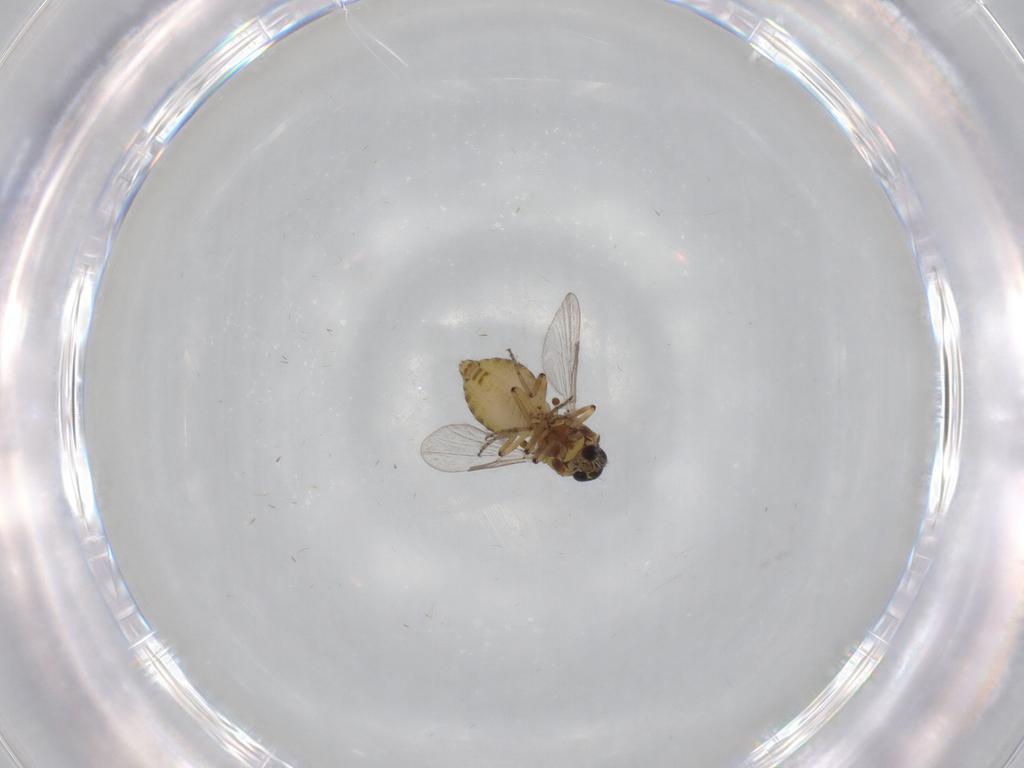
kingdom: Animalia
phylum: Arthropoda
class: Insecta
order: Diptera
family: Ceratopogonidae
